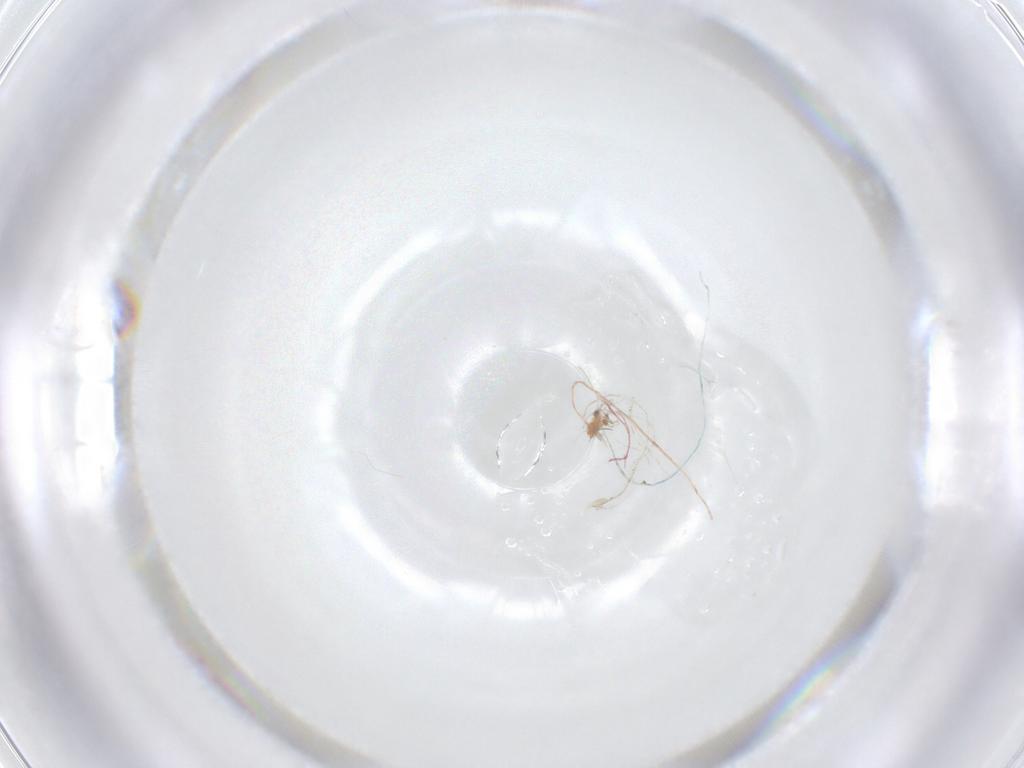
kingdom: Animalia
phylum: Arthropoda
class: Insecta
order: Diptera
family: Cecidomyiidae
